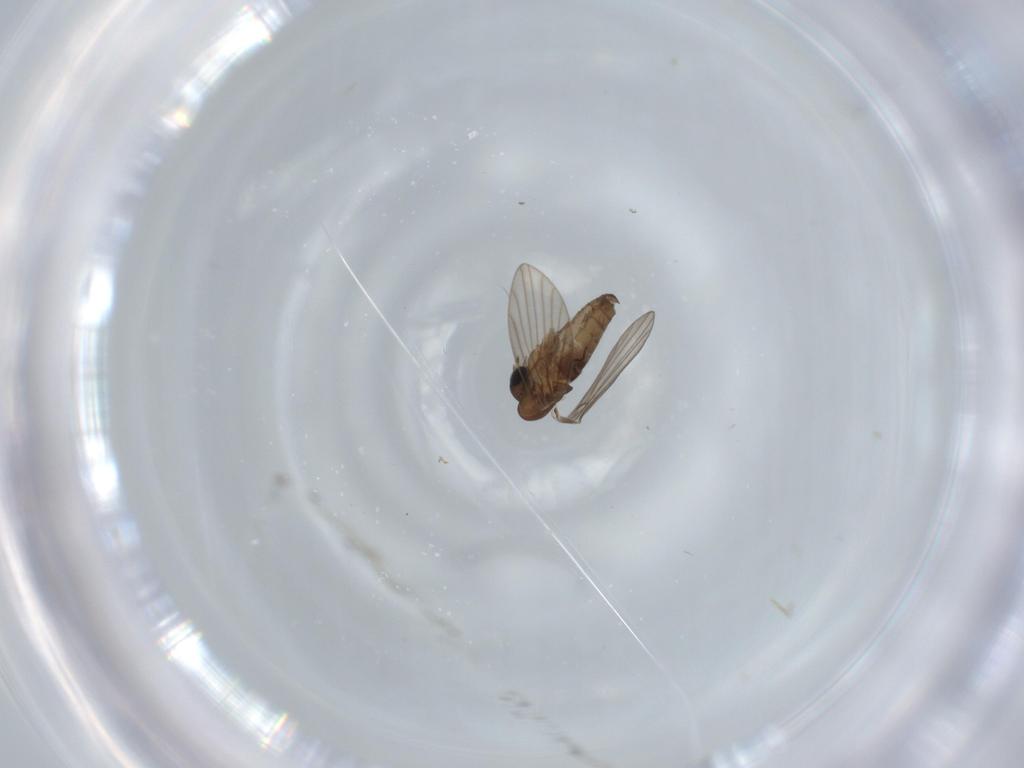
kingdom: Animalia
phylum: Arthropoda
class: Insecta
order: Diptera
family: Psychodidae
